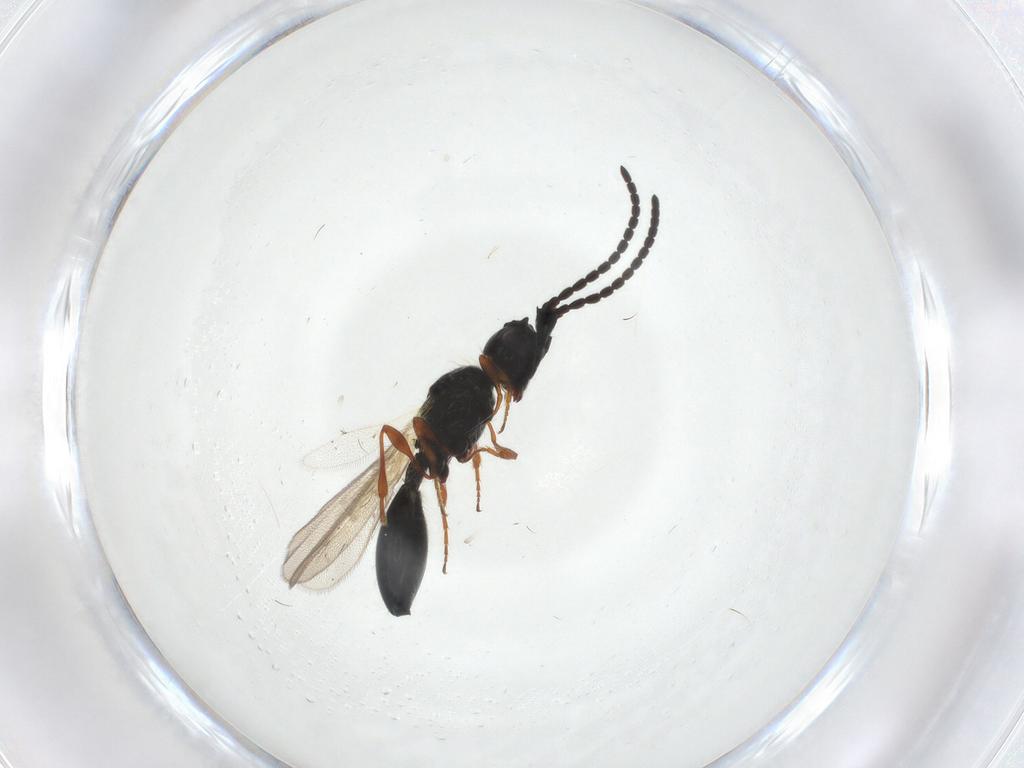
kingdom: Animalia
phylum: Arthropoda
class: Insecta
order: Hymenoptera
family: Diapriidae
